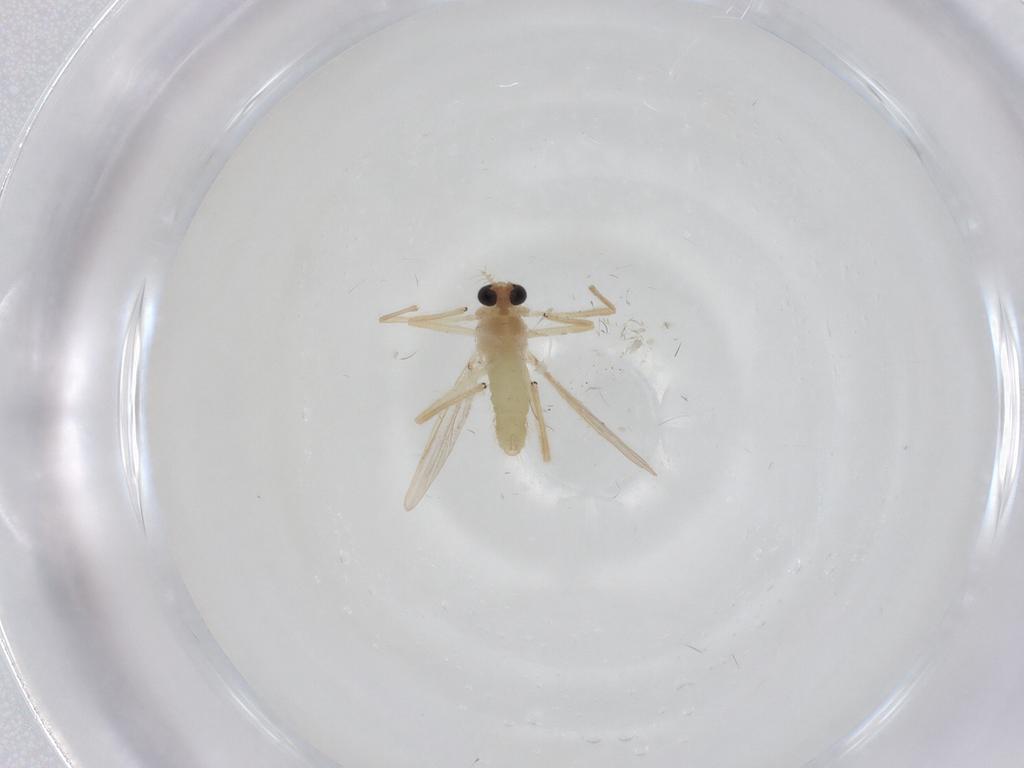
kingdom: Animalia
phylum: Arthropoda
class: Insecta
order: Diptera
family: Chironomidae
